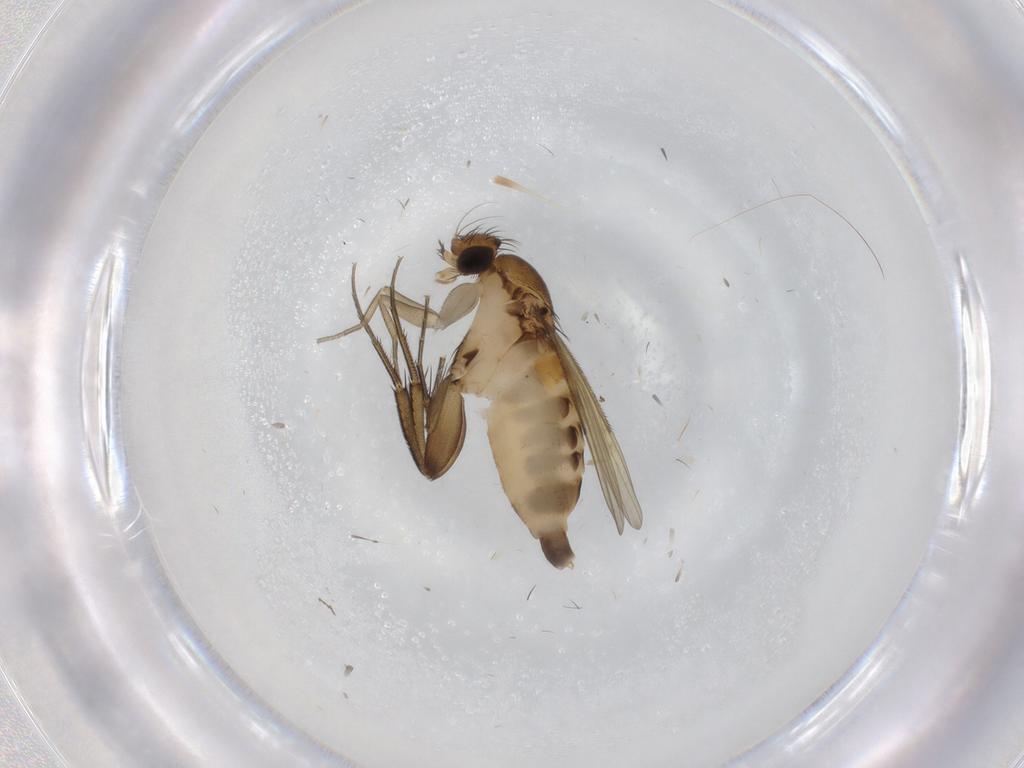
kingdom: Animalia
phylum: Arthropoda
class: Insecta
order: Diptera
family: Phoridae
